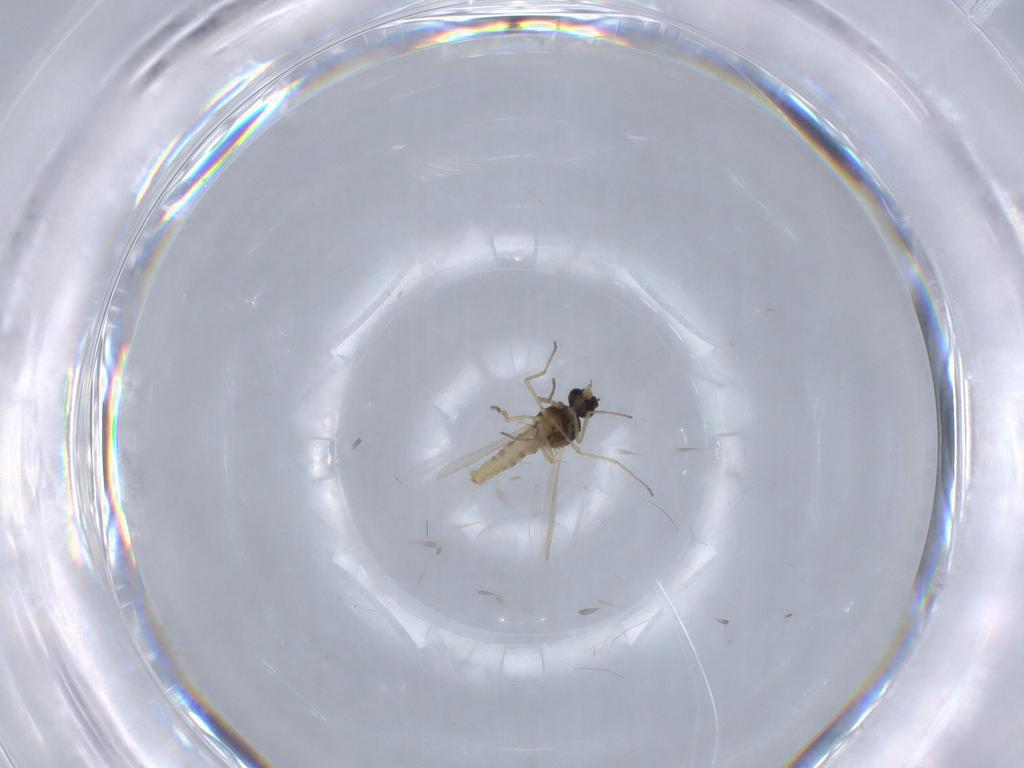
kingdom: Animalia
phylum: Arthropoda
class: Insecta
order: Diptera
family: Ceratopogonidae
